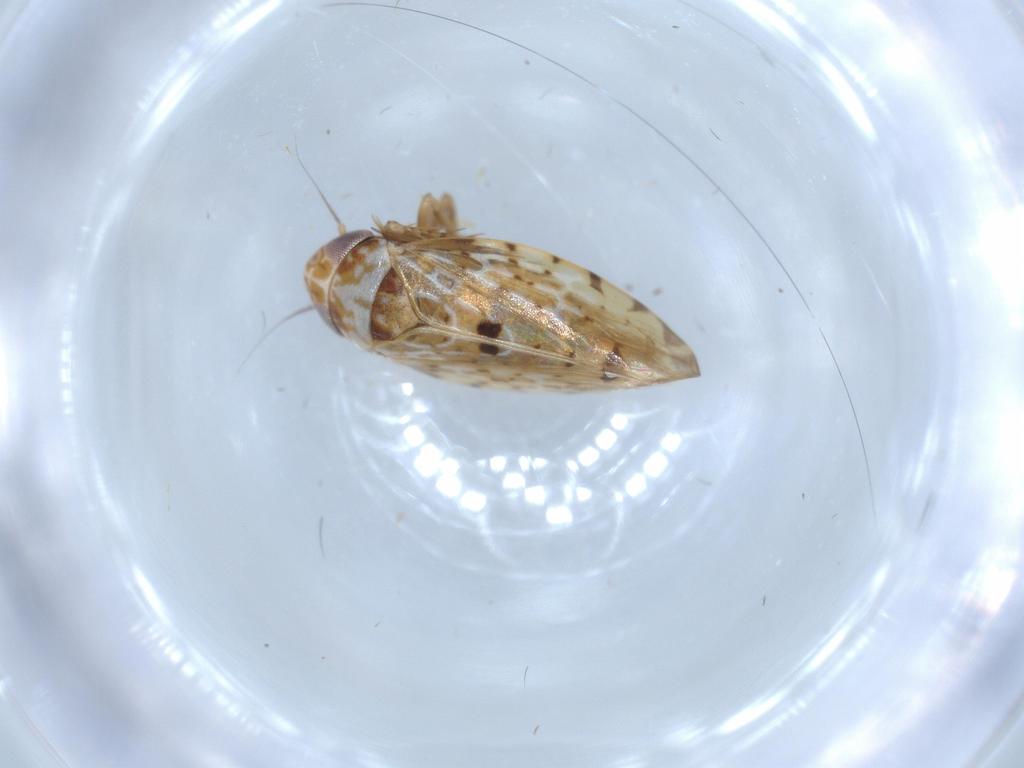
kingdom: Animalia
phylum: Arthropoda
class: Insecta
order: Hemiptera
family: Cicadellidae
